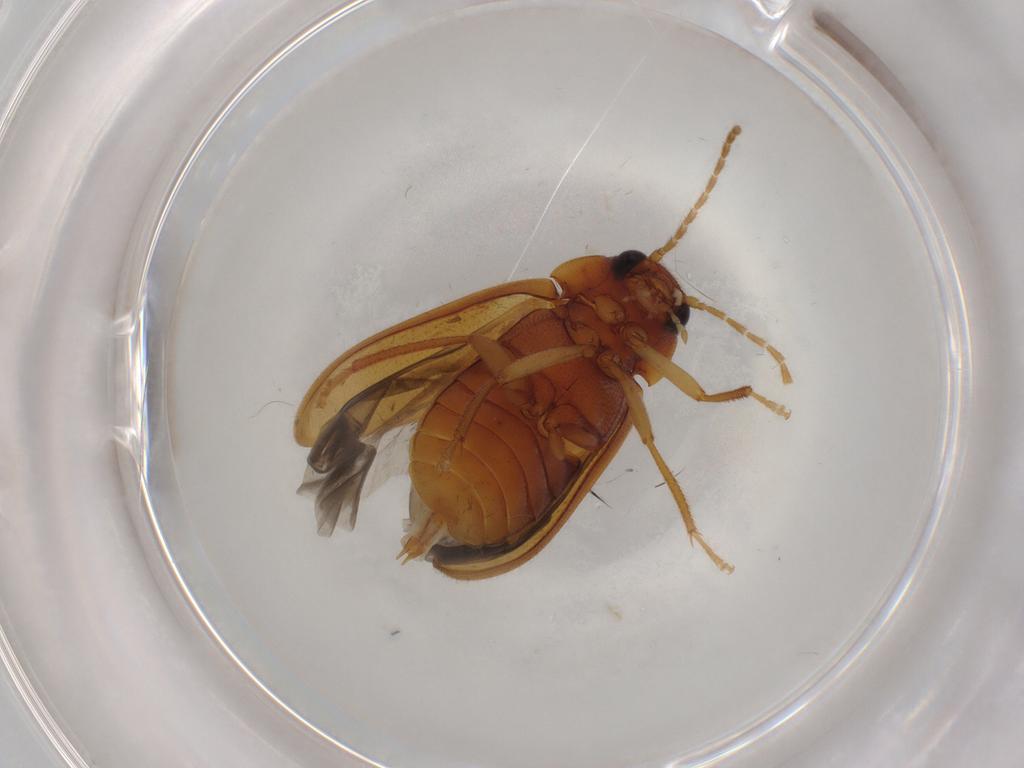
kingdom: Animalia
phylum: Arthropoda
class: Insecta
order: Coleoptera
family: Ptilodactylidae
